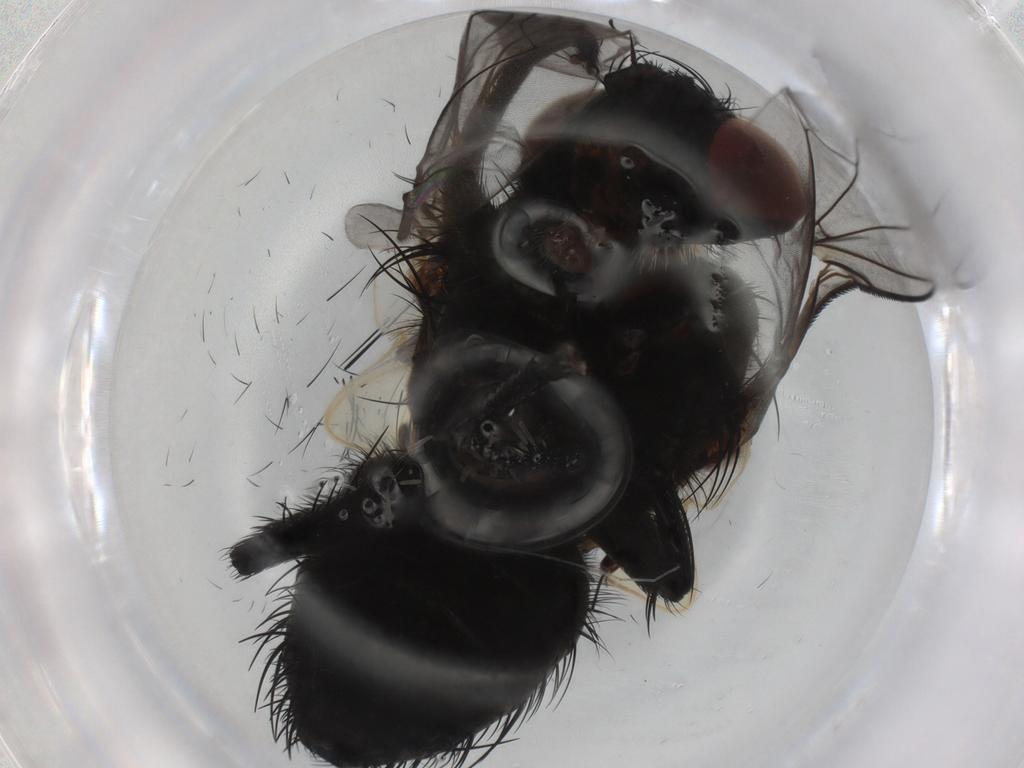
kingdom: Animalia
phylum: Arthropoda
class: Insecta
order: Diptera
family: Tachinidae
